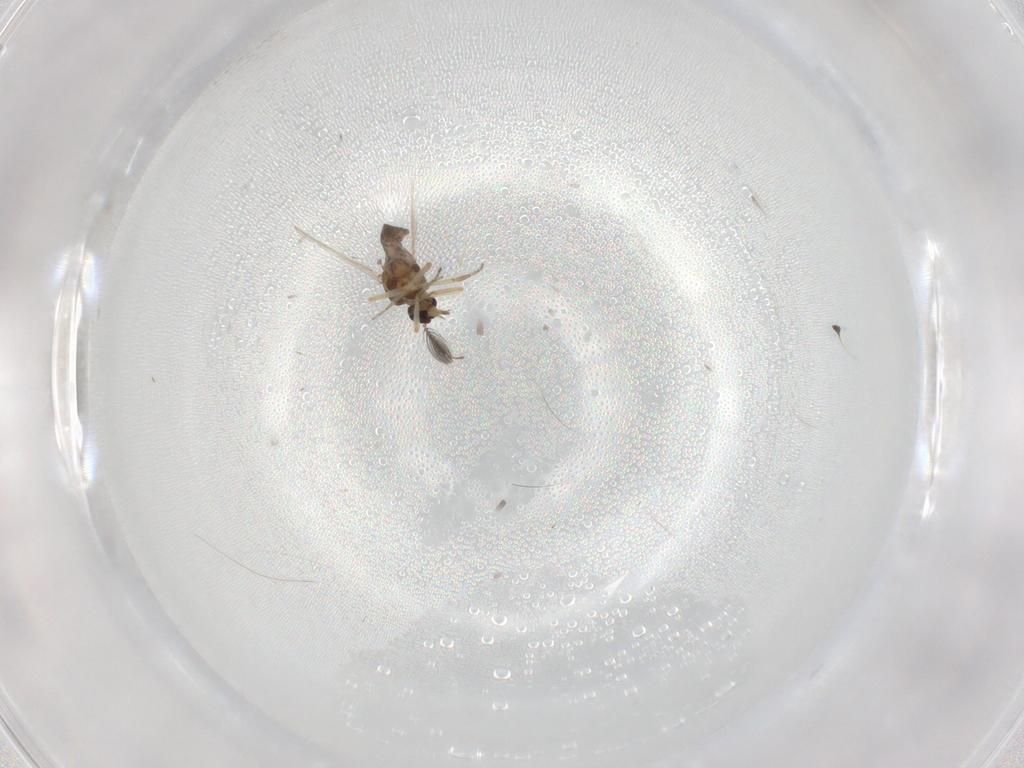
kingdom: Animalia
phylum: Arthropoda
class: Insecta
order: Diptera
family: Ceratopogonidae
